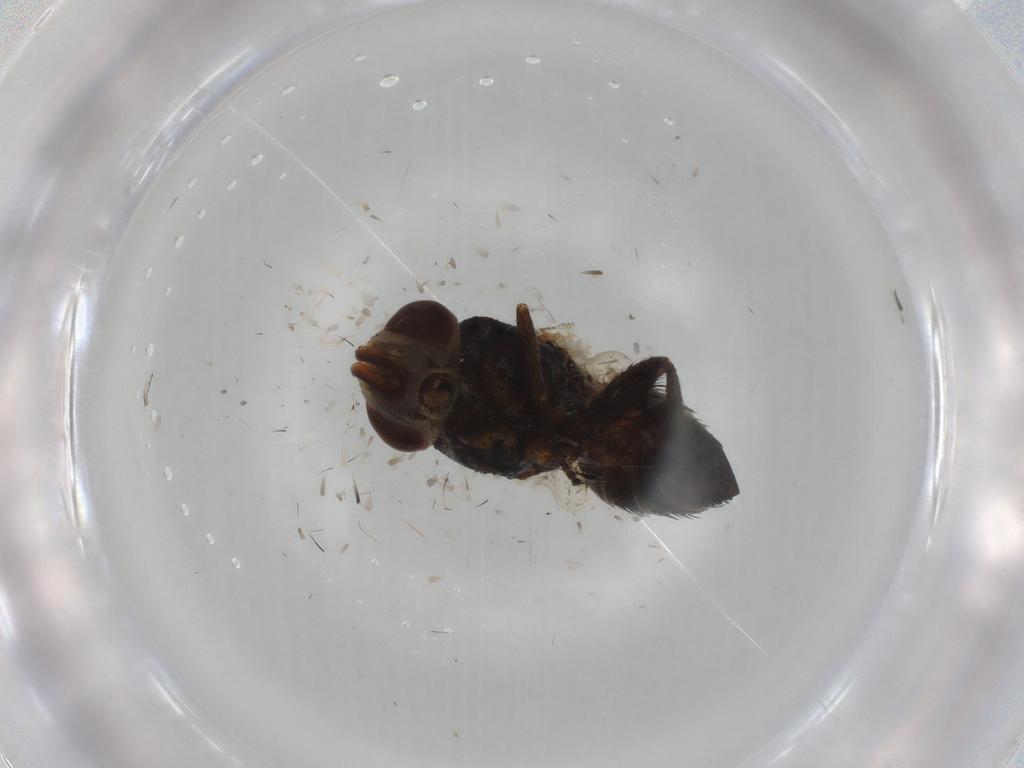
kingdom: Animalia
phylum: Arthropoda
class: Insecta
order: Diptera
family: Glossinidae
